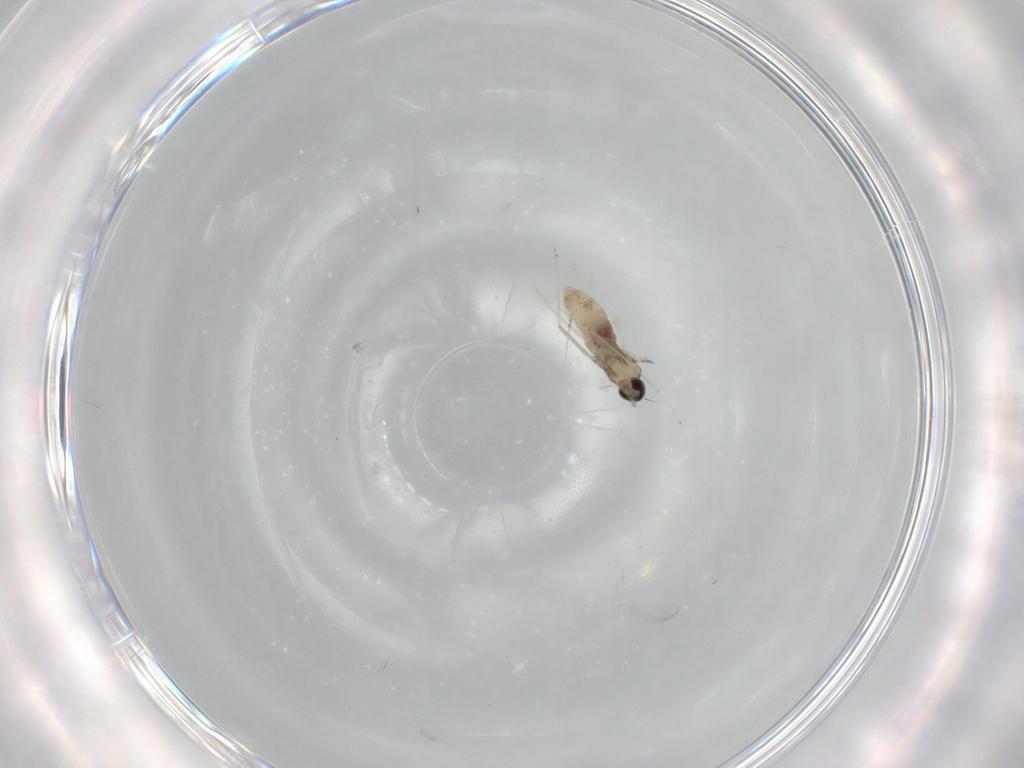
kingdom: Animalia
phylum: Arthropoda
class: Insecta
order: Diptera
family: Cecidomyiidae
